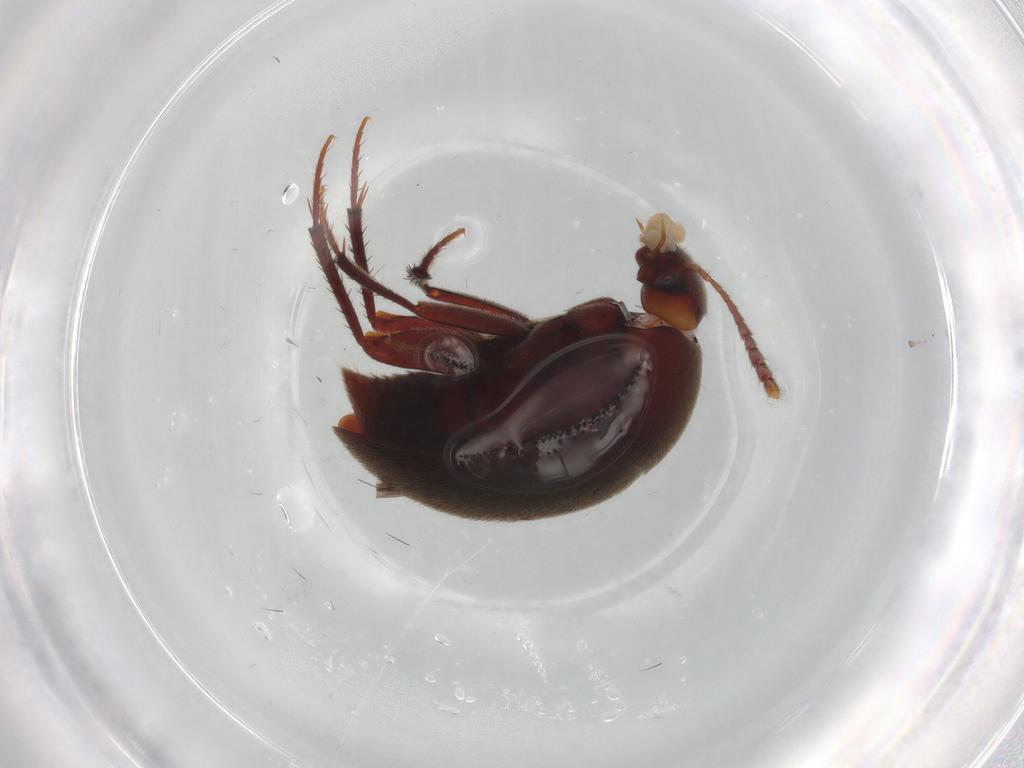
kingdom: Animalia
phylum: Arthropoda
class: Insecta
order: Coleoptera
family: Leiodidae
